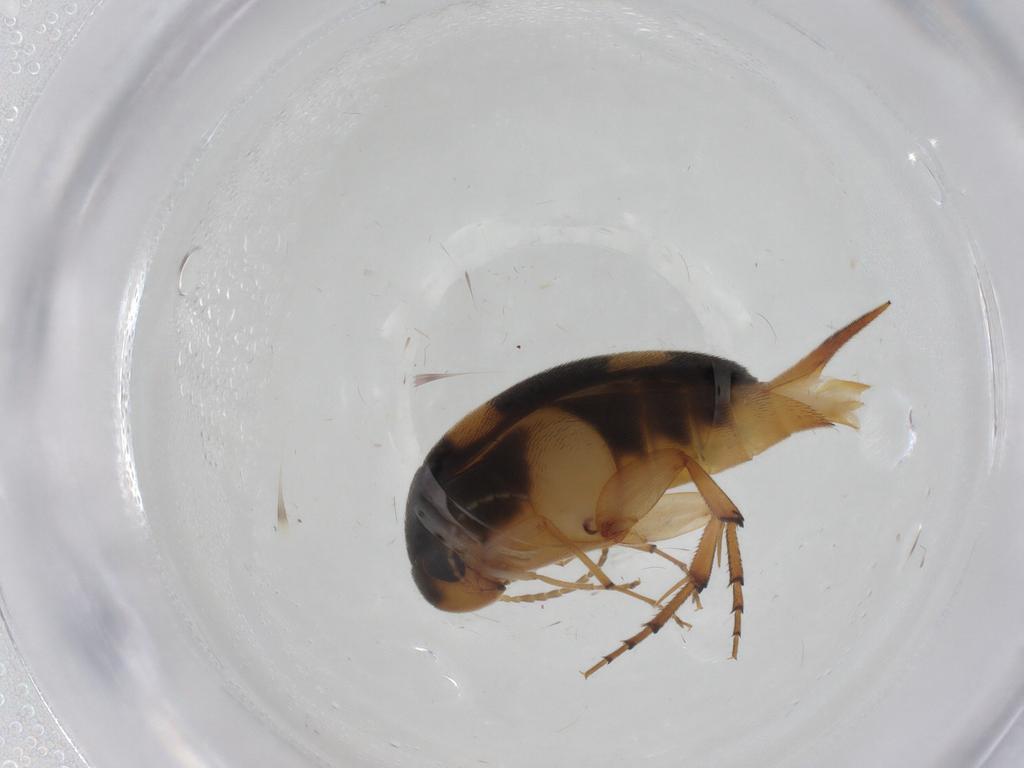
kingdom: Animalia
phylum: Arthropoda
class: Insecta
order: Coleoptera
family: Mordellidae
